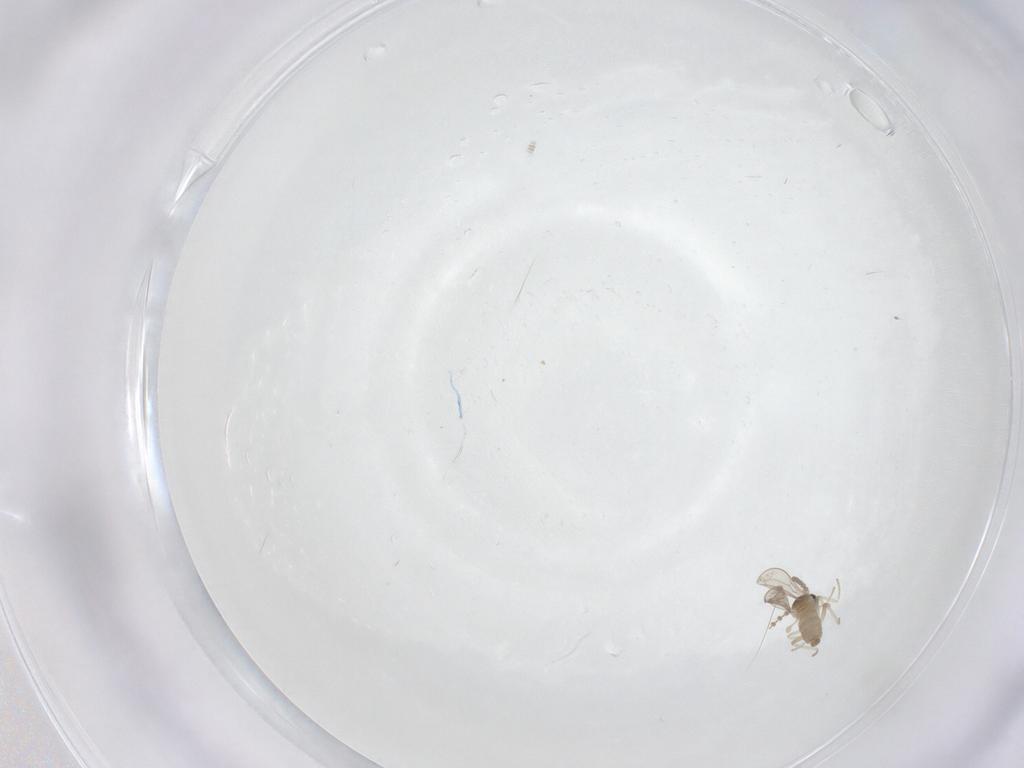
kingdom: Animalia
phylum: Arthropoda
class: Insecta
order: Diptera
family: Cecidomyiidae
